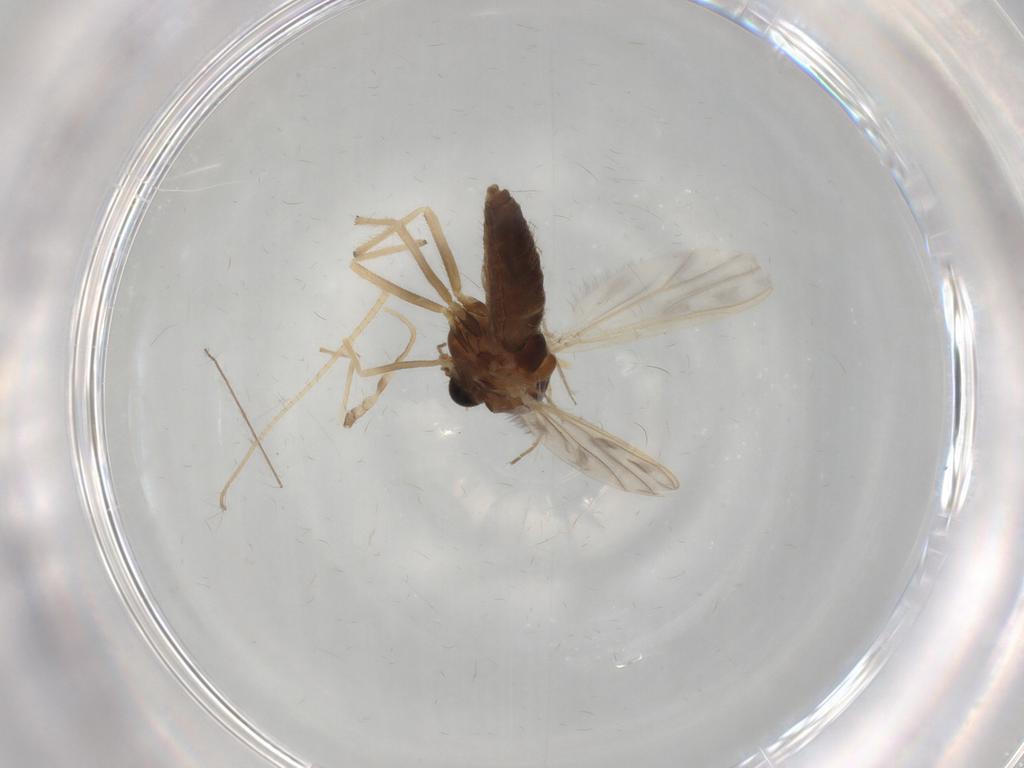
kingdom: Animalia
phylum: Arthropoda
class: Insecta
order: Diptera
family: Chironomidae
